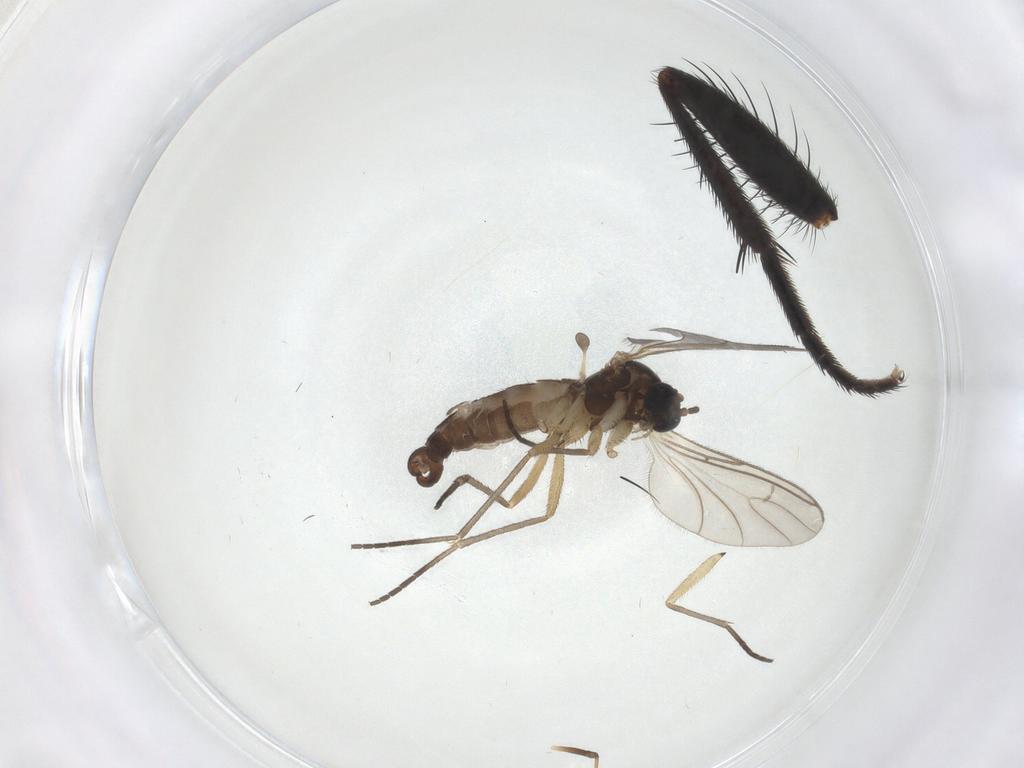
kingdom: Animalia
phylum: Arthropoda
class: Insecta
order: Diptera
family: Sciaridae
